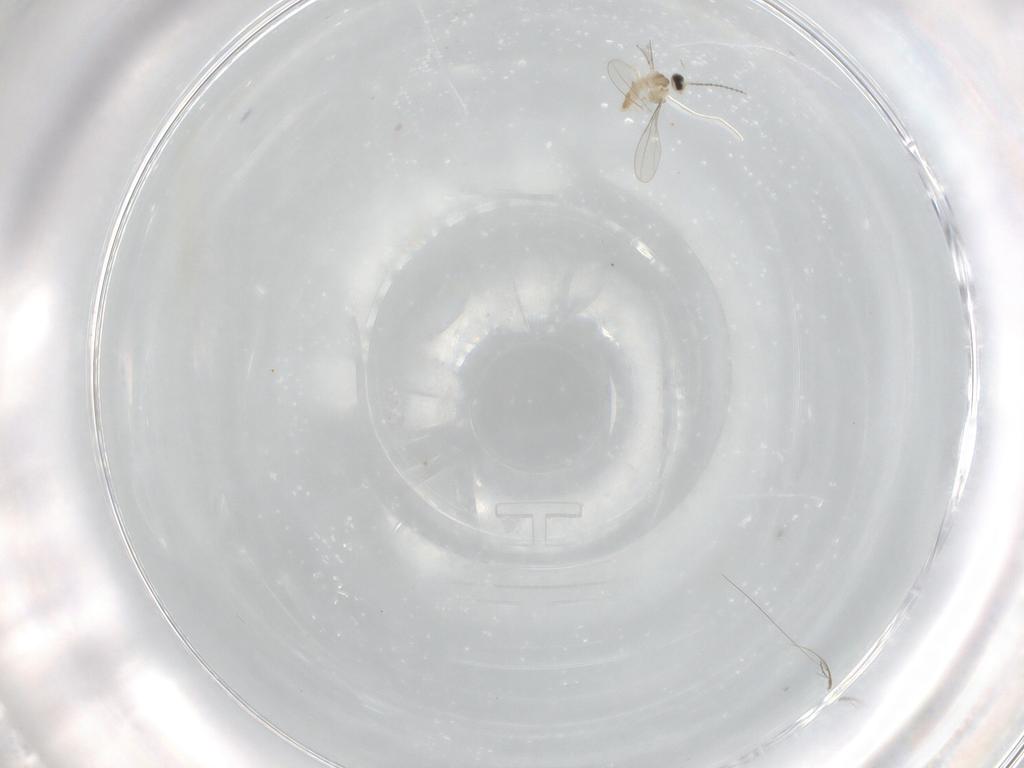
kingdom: Animalia
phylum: Arthropoda
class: Insecta
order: Diptera
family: Cecidomyiidae
